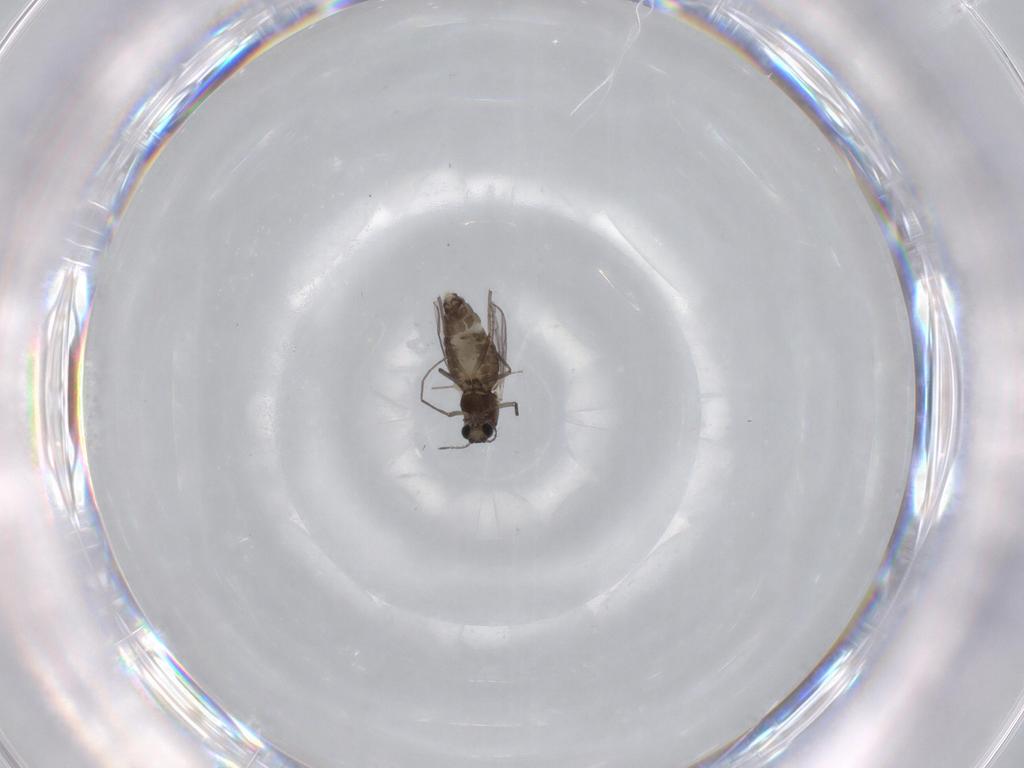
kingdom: Animalia
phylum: Arthropoda
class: Insecta
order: Diptera
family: Chironomidae
